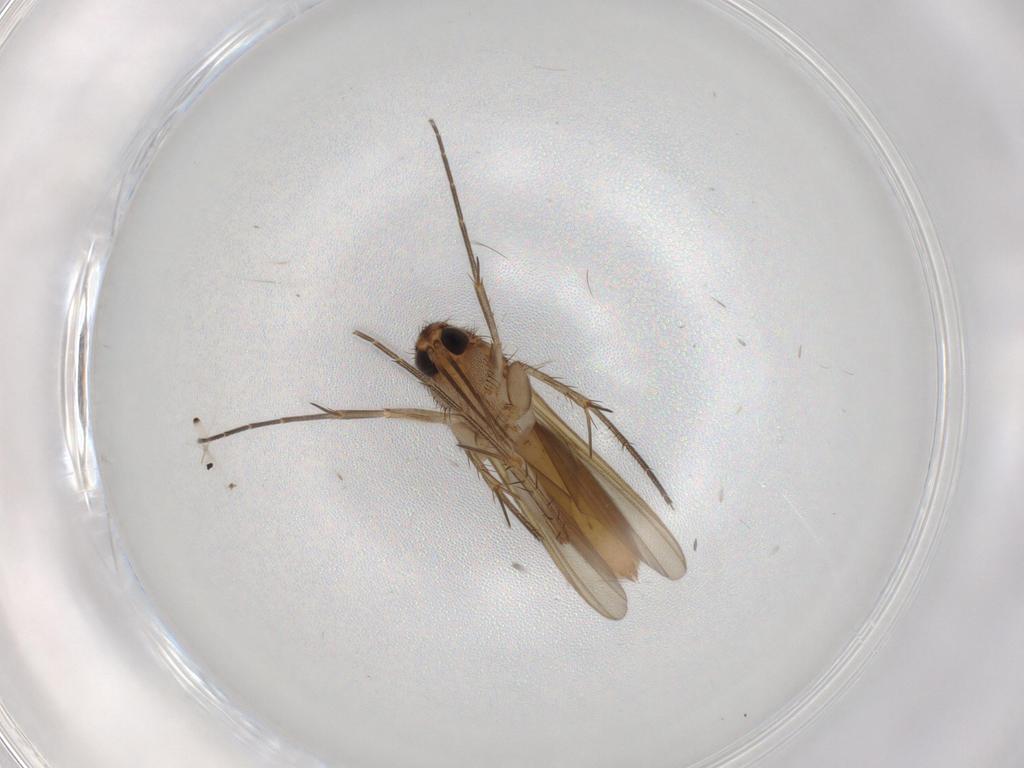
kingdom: Animalia
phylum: Arthropoda
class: Insecta
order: Diptera
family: Mycetophilidae
